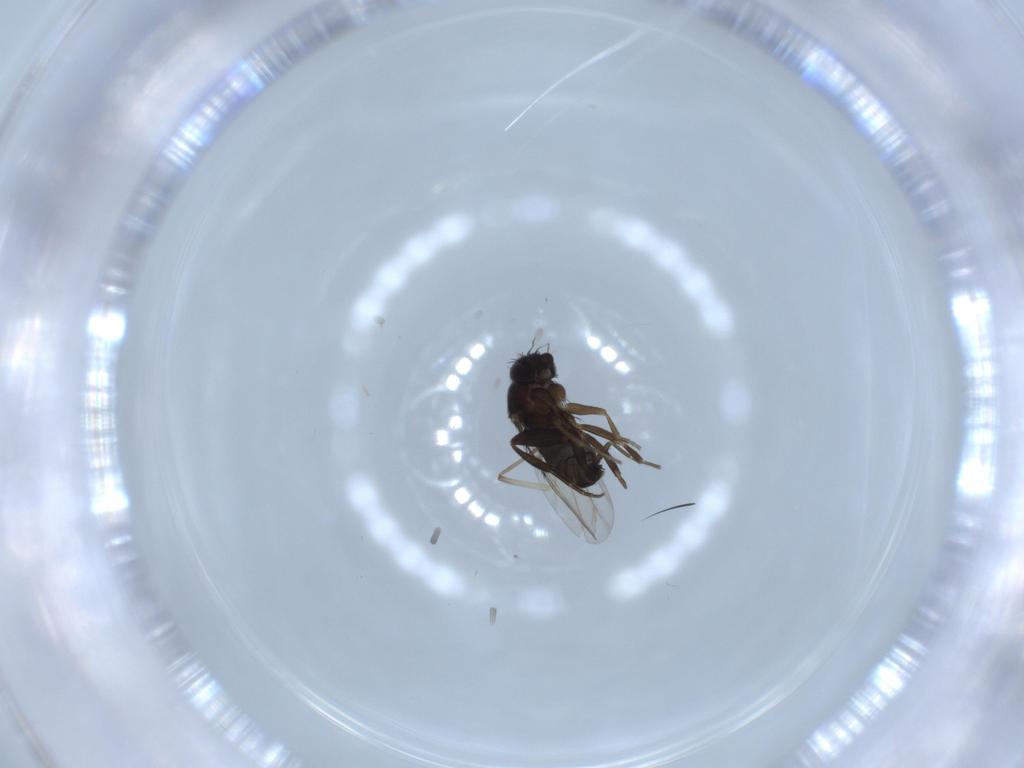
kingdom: Animalia
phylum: Arthropoda
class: Insecta
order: Diptera
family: Phoridae
